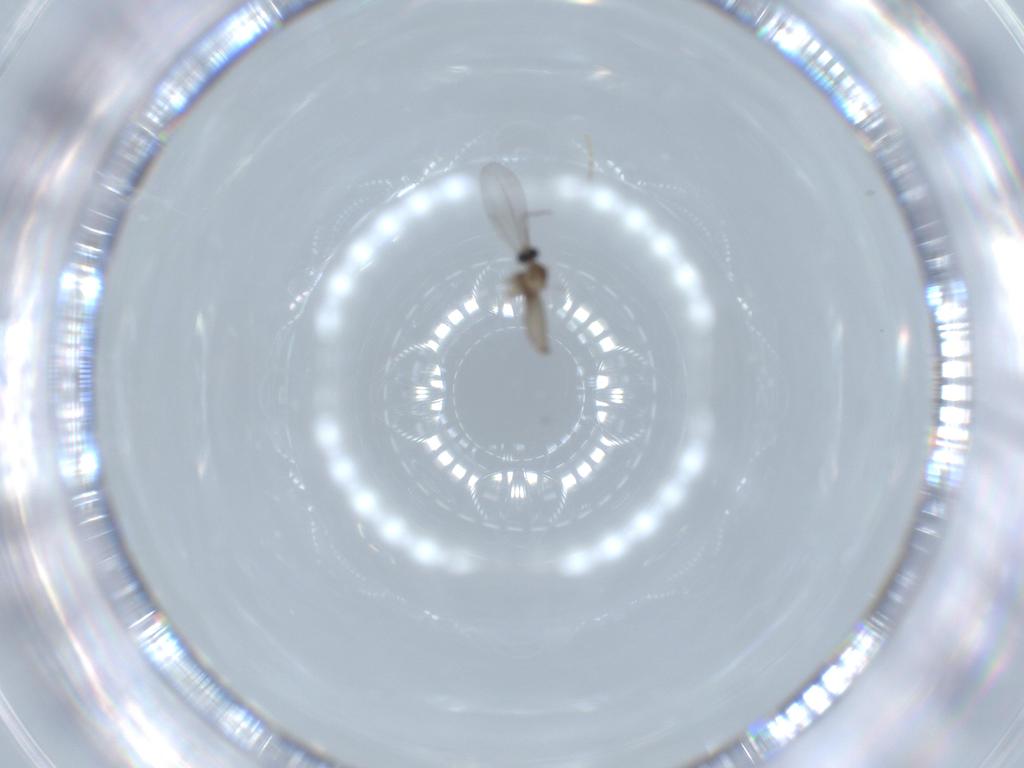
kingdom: Animalia
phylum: Arthropoda
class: Insecta
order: Diptera
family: Cecidomyiidae
